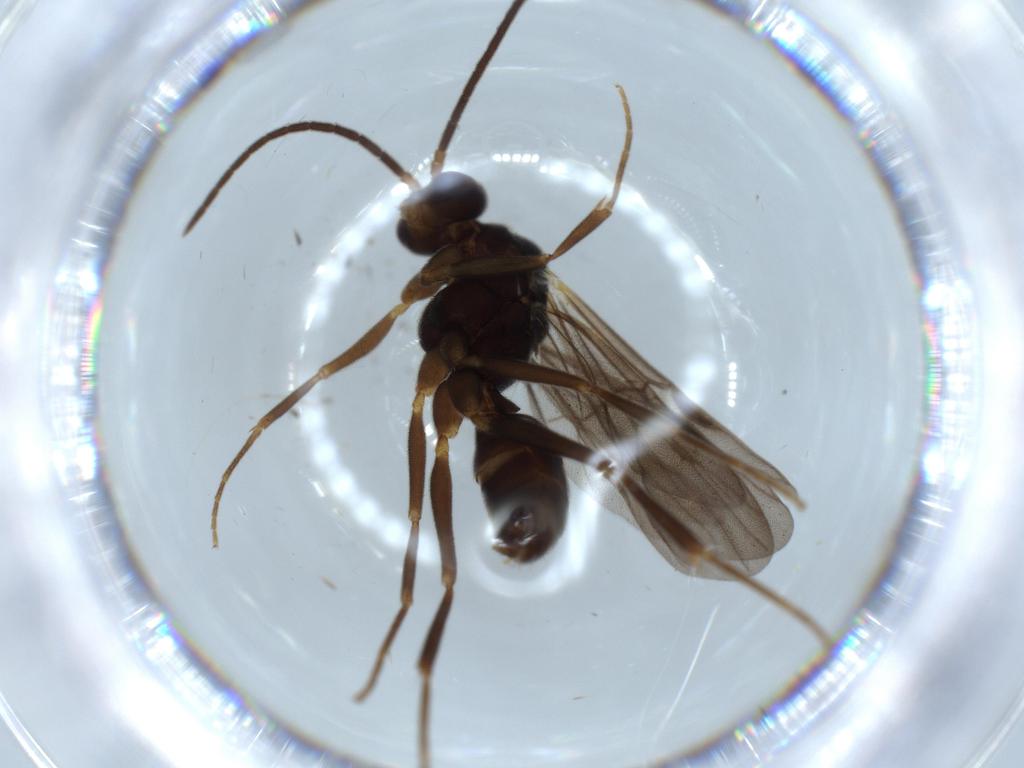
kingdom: Animalia
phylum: Arthropoda
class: Insecta
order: Hymenoptera
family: Formicidae
